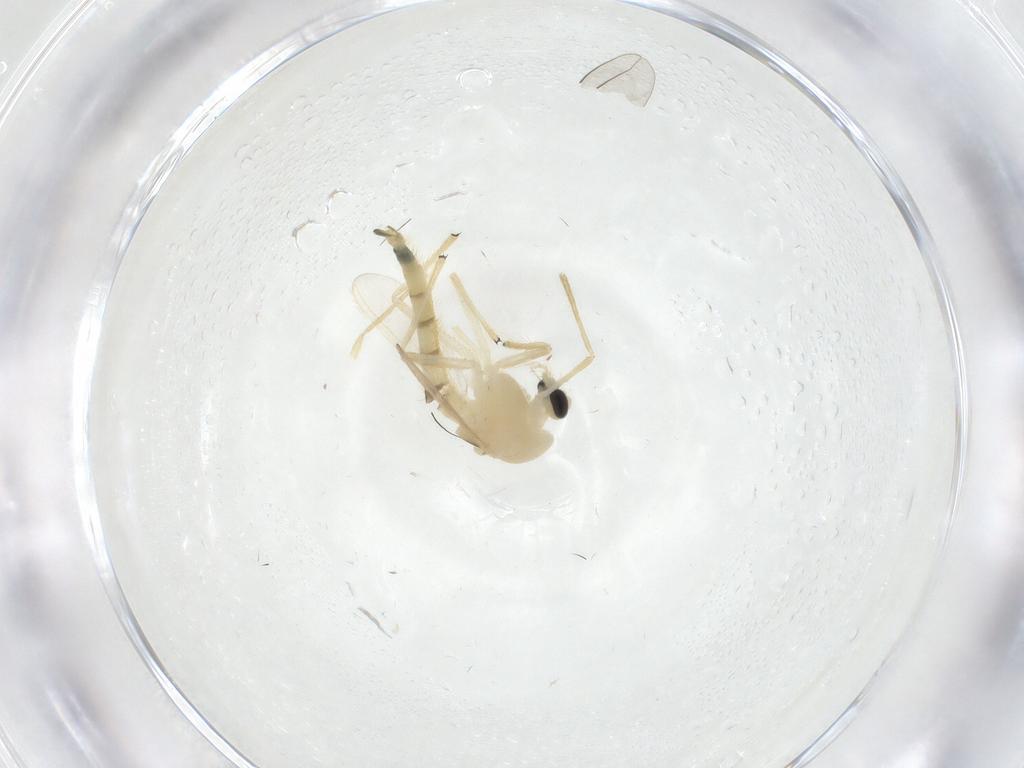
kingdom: Animalia
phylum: Arthropoda
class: Insecta
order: Diptera
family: Chironomidae
